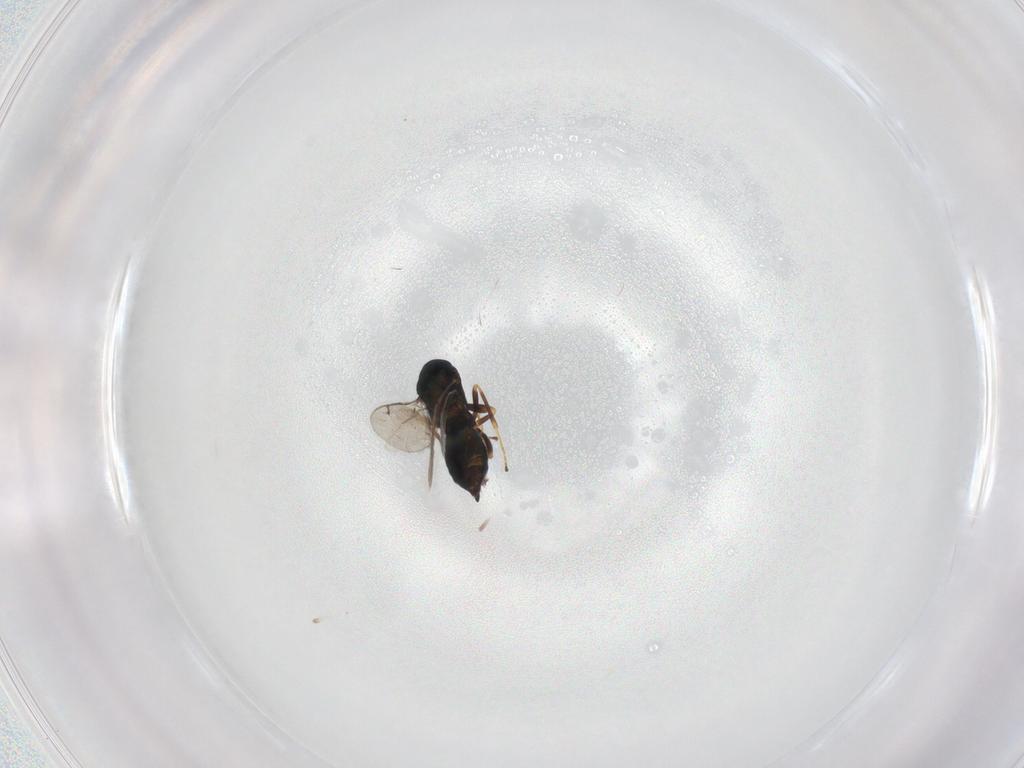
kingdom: Animalia
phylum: Arthropoda
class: Insecta
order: Hymenoptera
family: Pteromalidae
